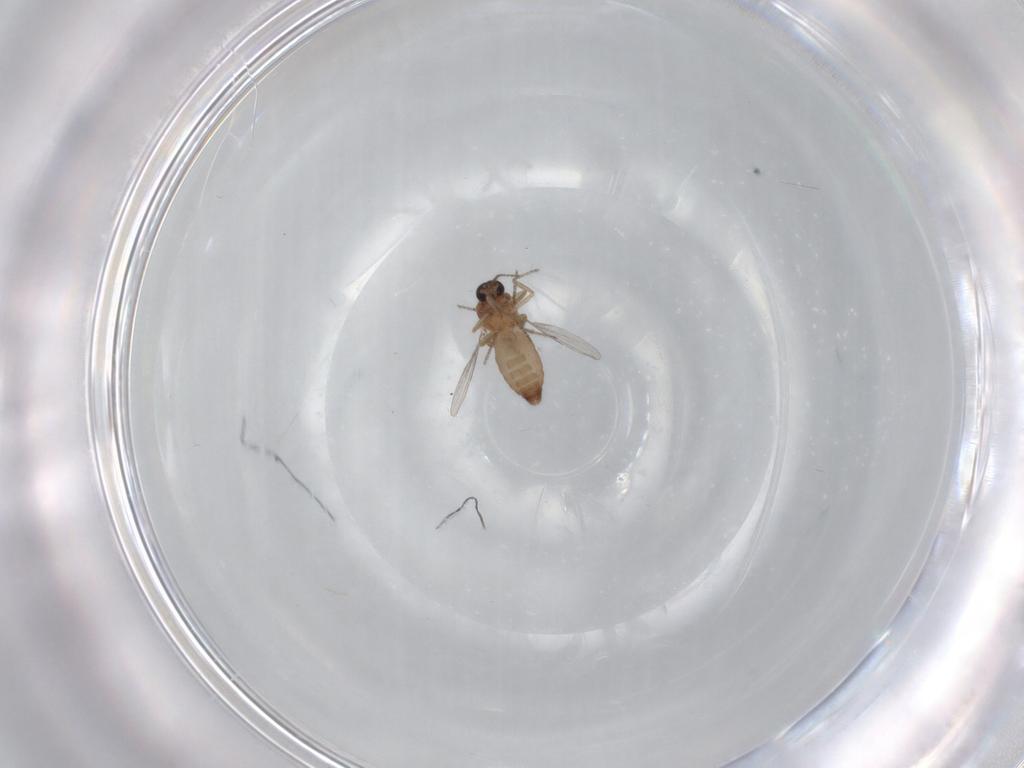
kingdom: Animalia
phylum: Arthropoda
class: Insecta
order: Diptera
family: Ceratopogonidae
